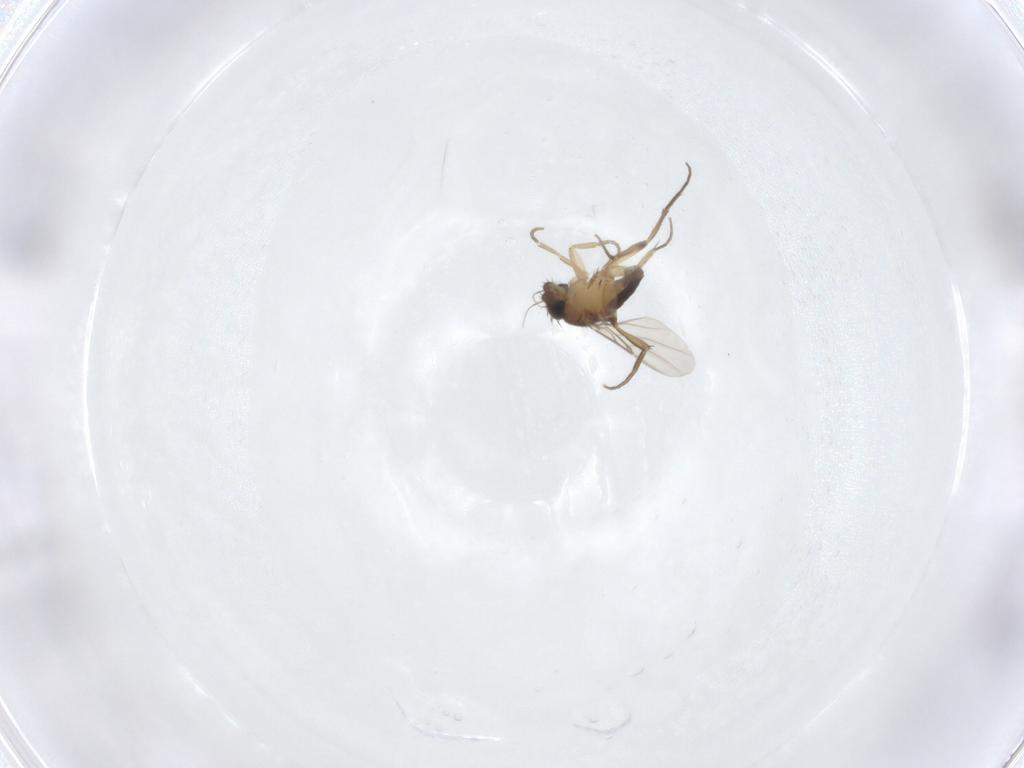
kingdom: Animalia
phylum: Arthropoda
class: Insecta
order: Diptera
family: Phoridae
